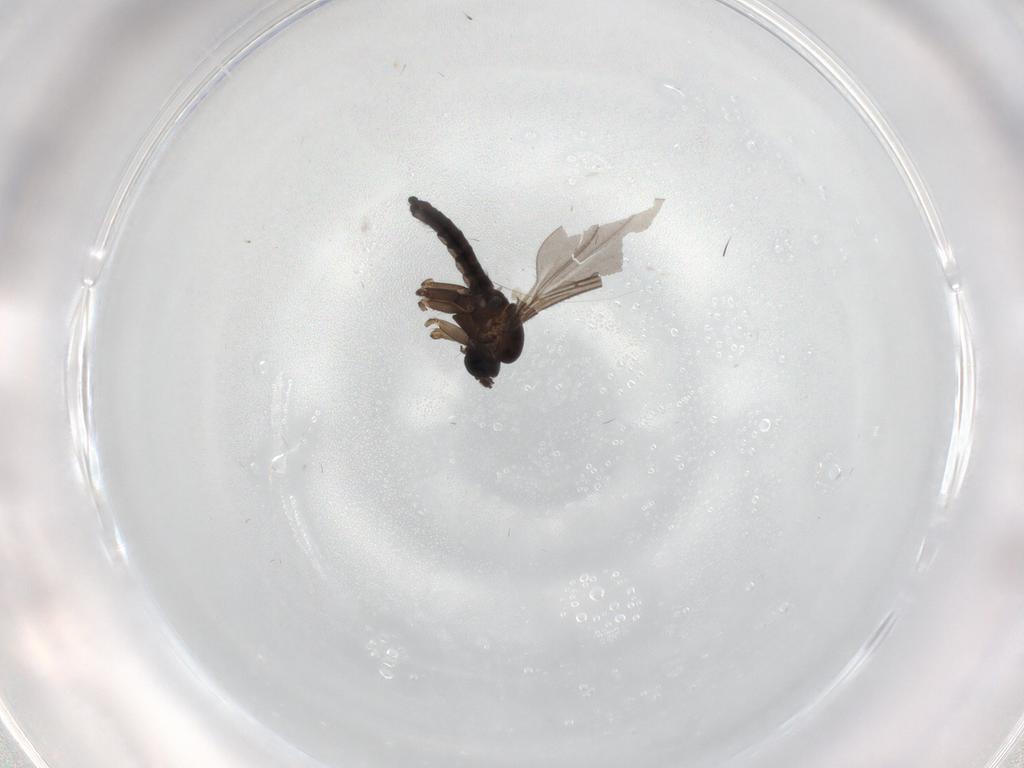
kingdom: Animalia
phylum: Arthropoda
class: Insecta
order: Diptera
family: Sciaridae
